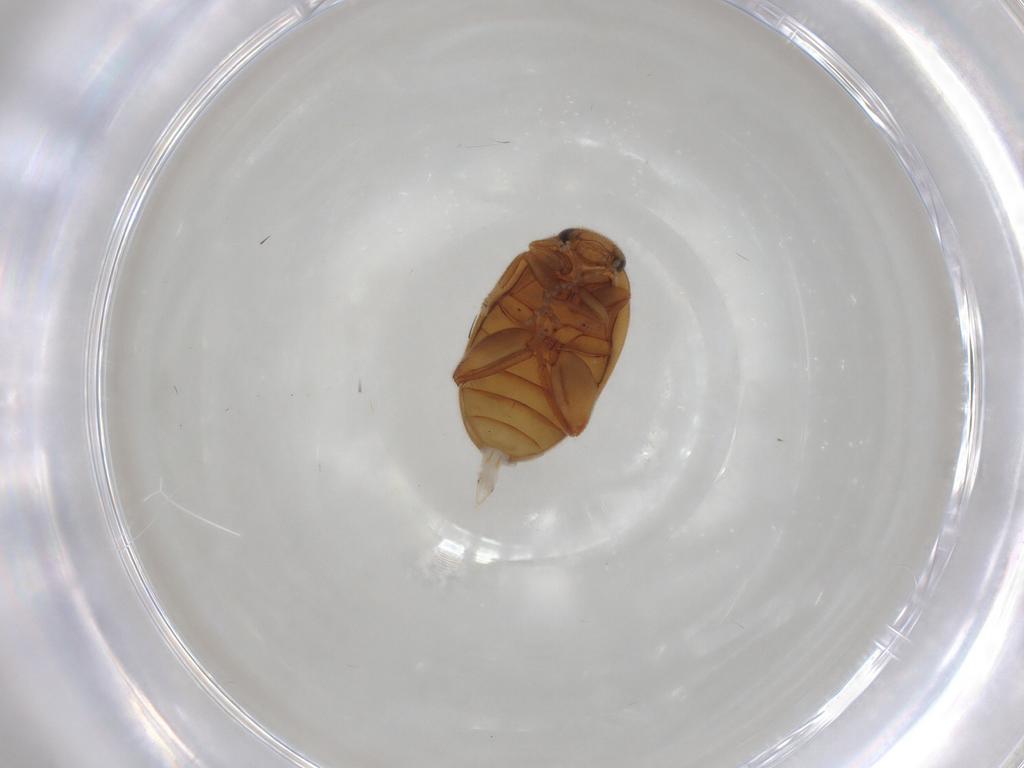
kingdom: Animalia
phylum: Arthropoda
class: Insecta
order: Coleoptera
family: Scirtidae
